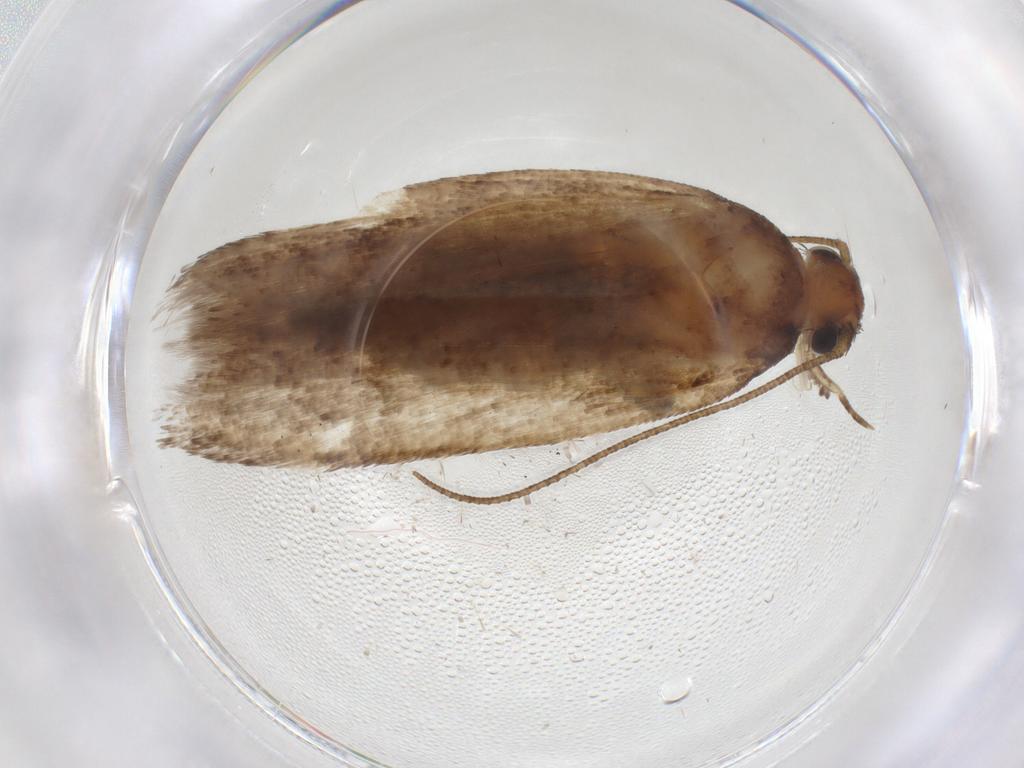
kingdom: Animalia
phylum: Arthropoda
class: Insecta
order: Lepidoptera
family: Gelechiidae
